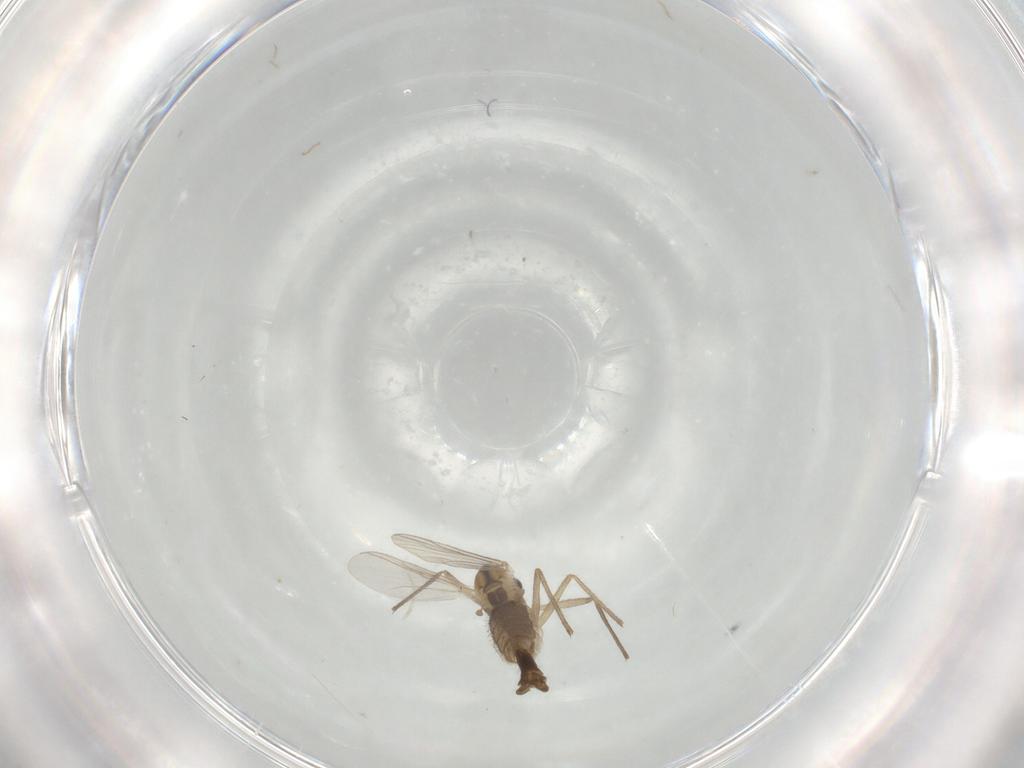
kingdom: Animalia
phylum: Arthropoda
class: Insecta
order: Diptera
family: Chironomidae
